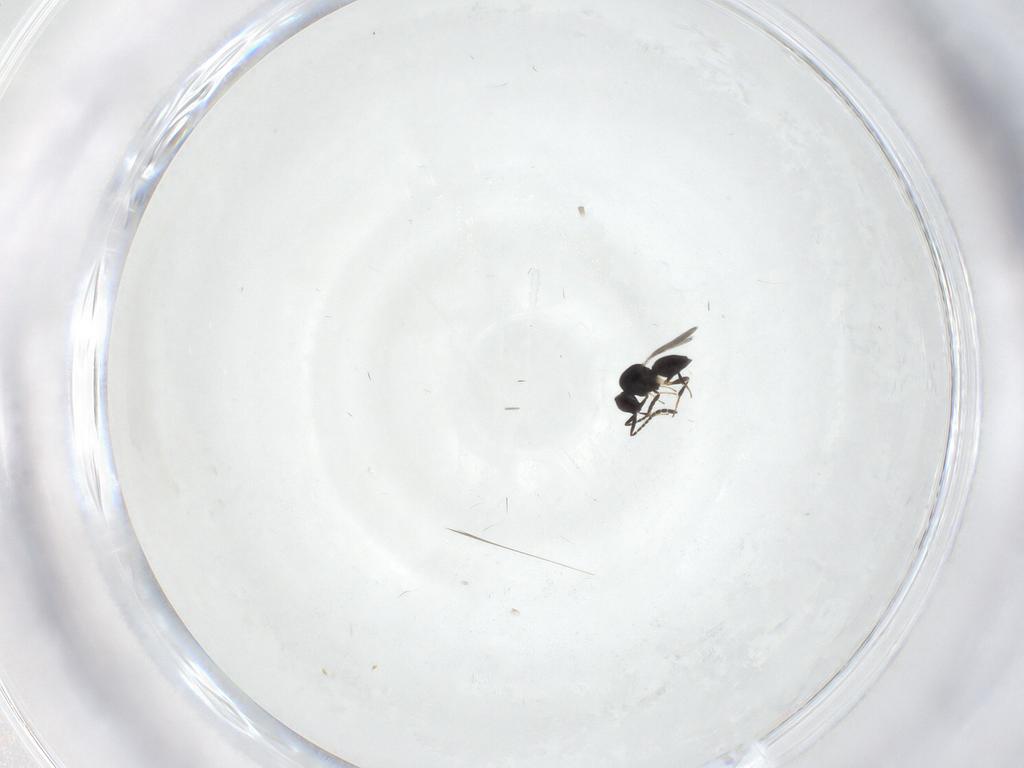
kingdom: Animalia
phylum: Arthropoda
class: Insecta
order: Hymenoptera
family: Ceraphronidae
